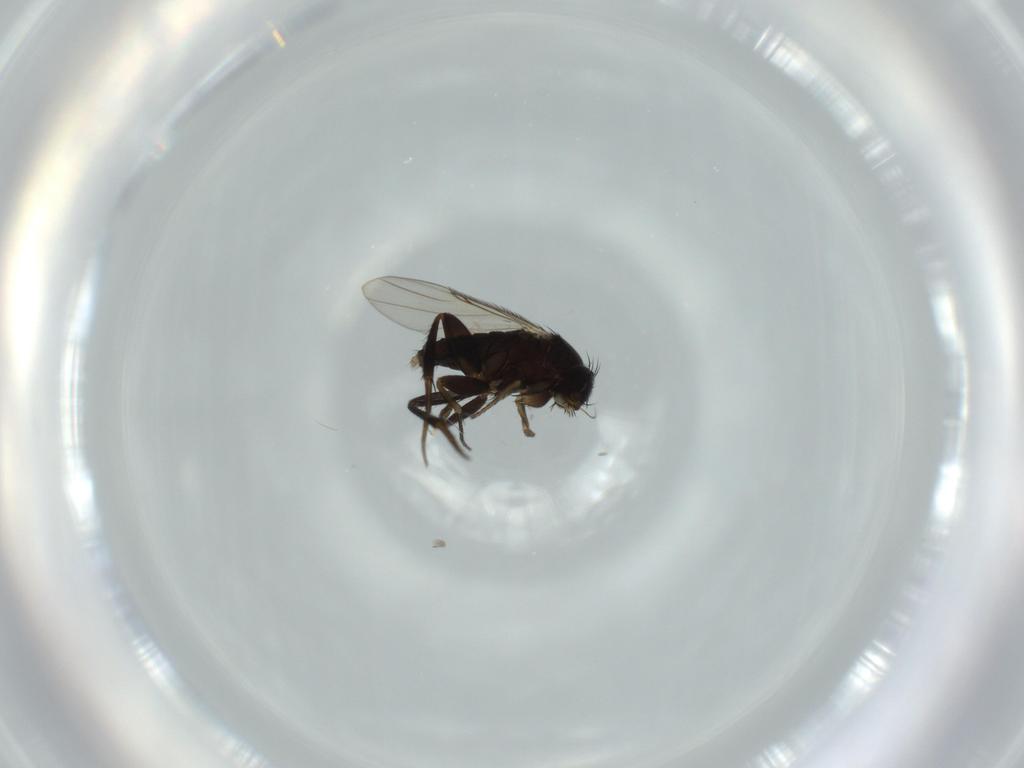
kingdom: Animalia
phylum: Arthropoda
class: Insecta
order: Diptera
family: Phoridae
